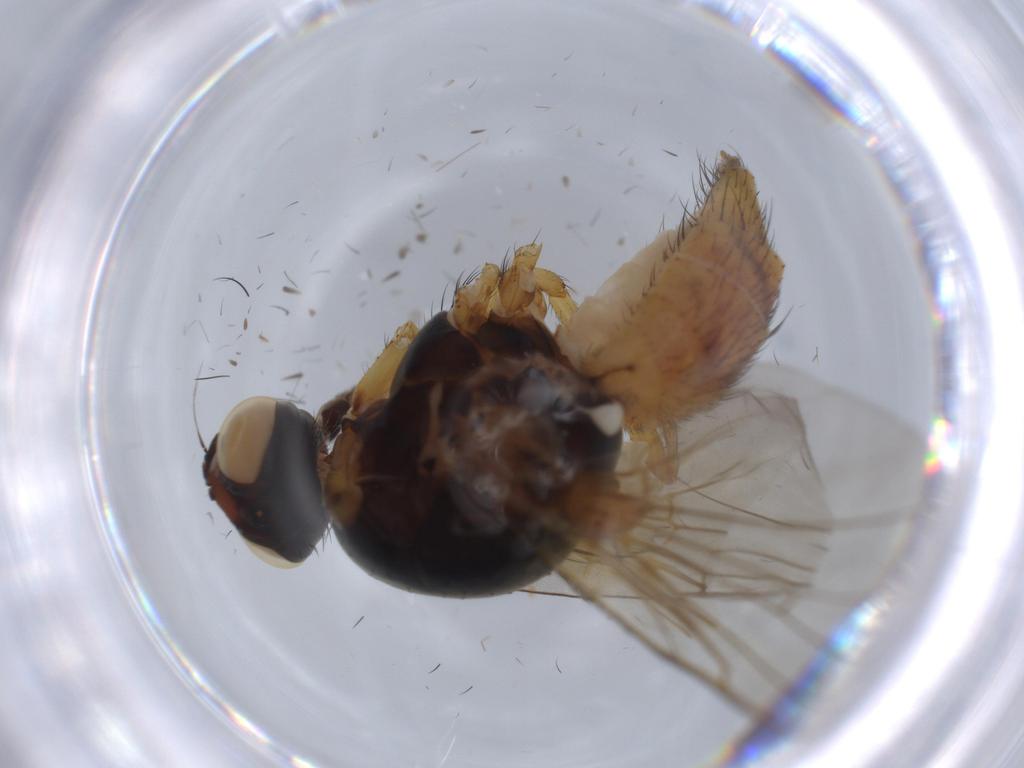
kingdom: Animalia
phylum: Arthropoda
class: Insecta
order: Diptera
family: Anthomyiidae
